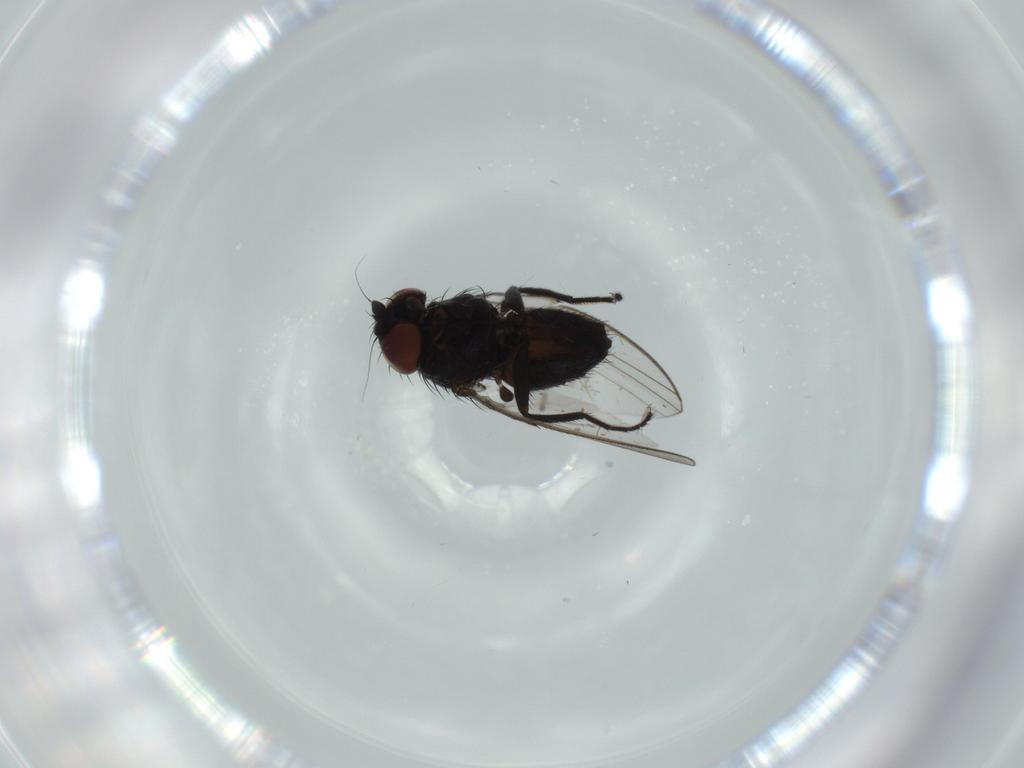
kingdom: Animalia
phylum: Arthropoda
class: Insecta
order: Diptera
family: Milichiidae
